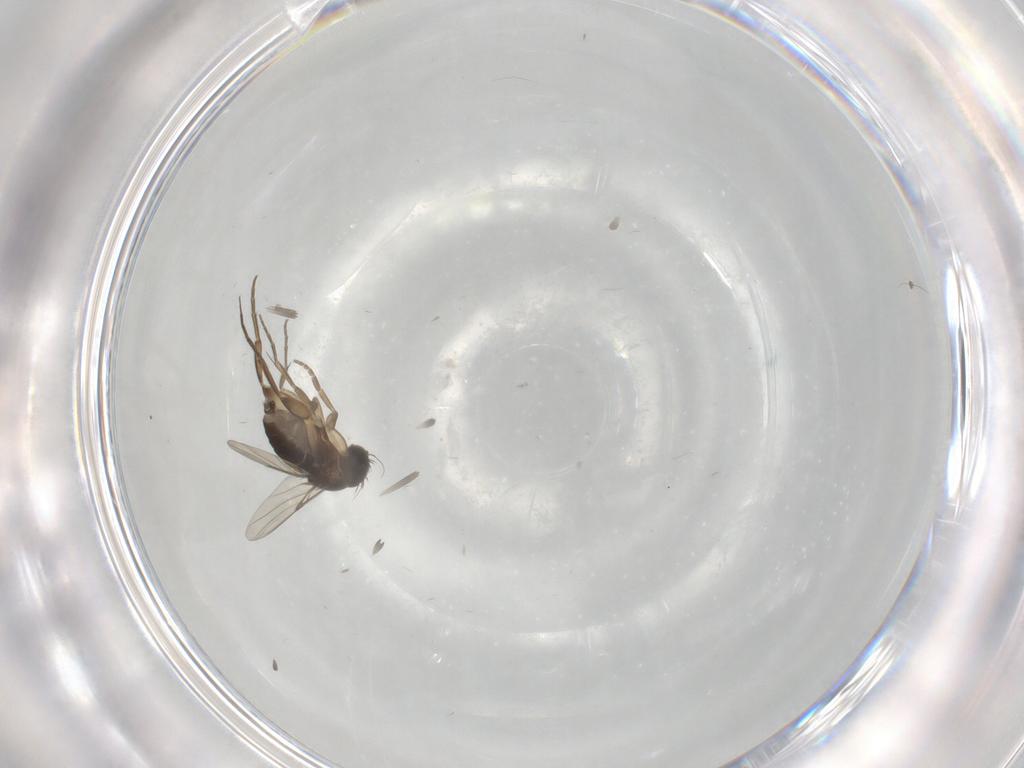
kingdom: Animalia
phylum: Arthropoda
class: Insecta
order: Diptera
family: Phoridae
